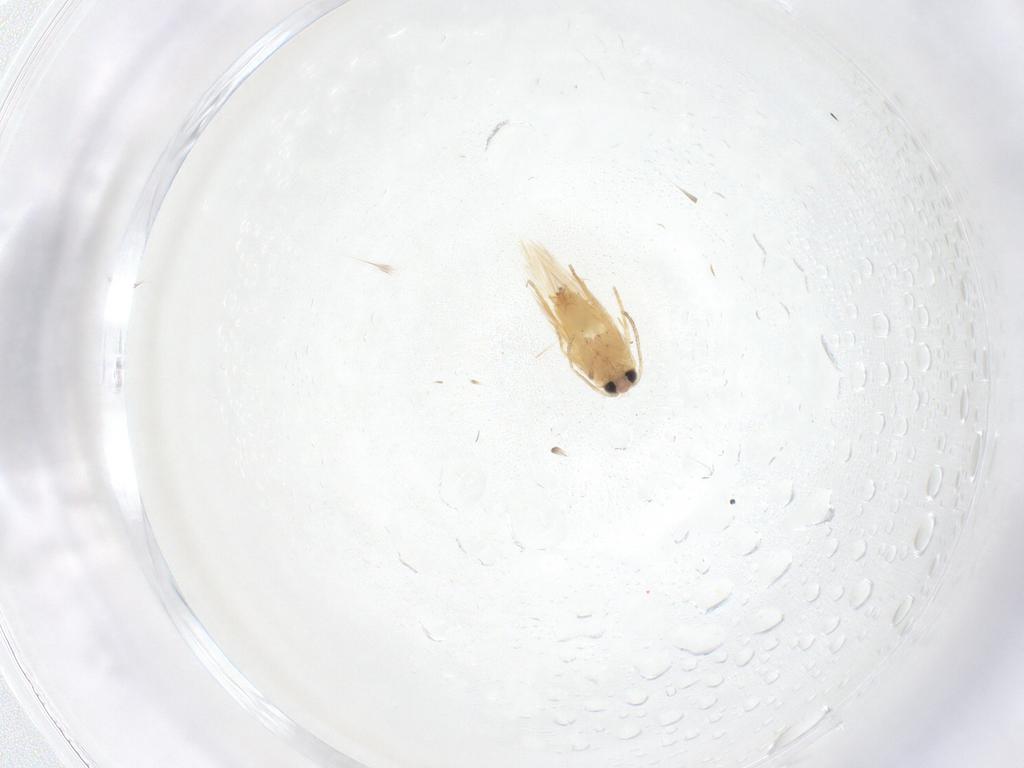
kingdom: Animalia
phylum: Arthropoda
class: Insecta
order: Lepidoptera
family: Crambidae
